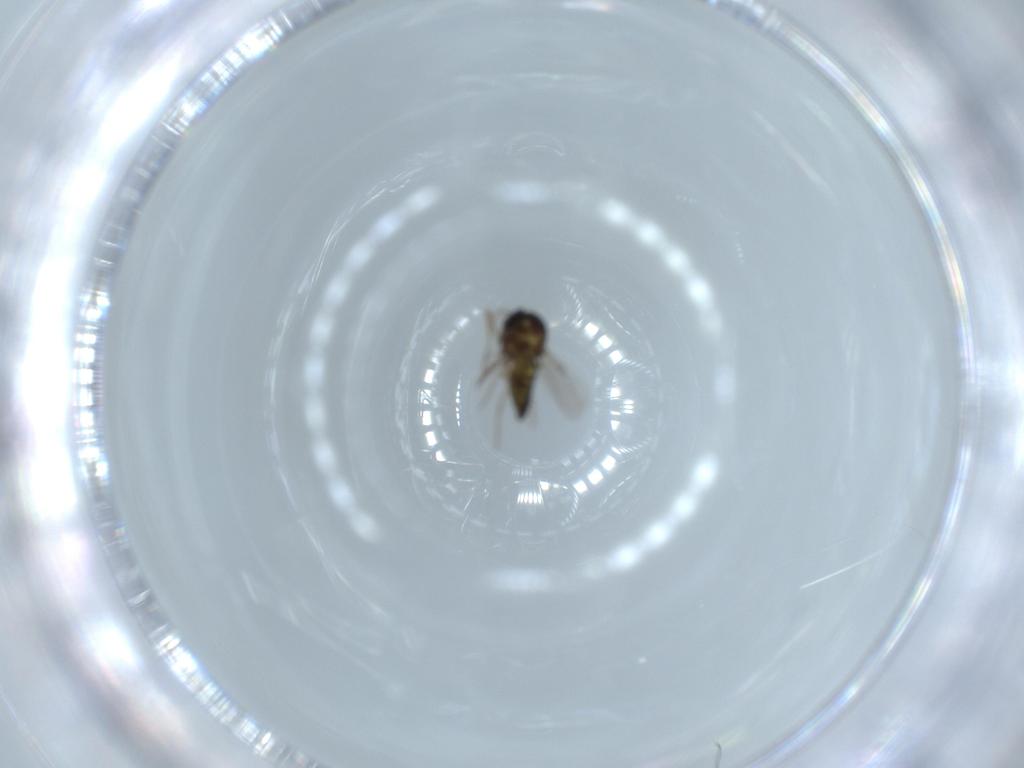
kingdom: Animalia
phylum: Arthropoda
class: Insecta
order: Diptera
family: Ceratopogonidae
